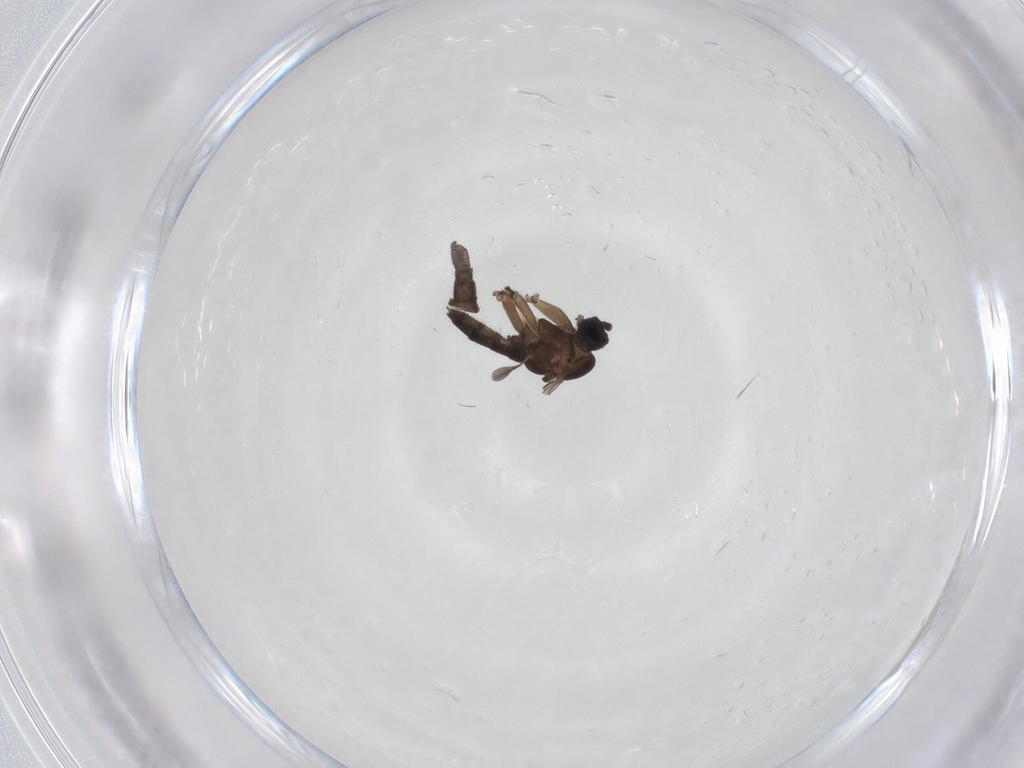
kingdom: Animalia
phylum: Arthropoda
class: Insecta
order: Diptera
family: Sciaridae
